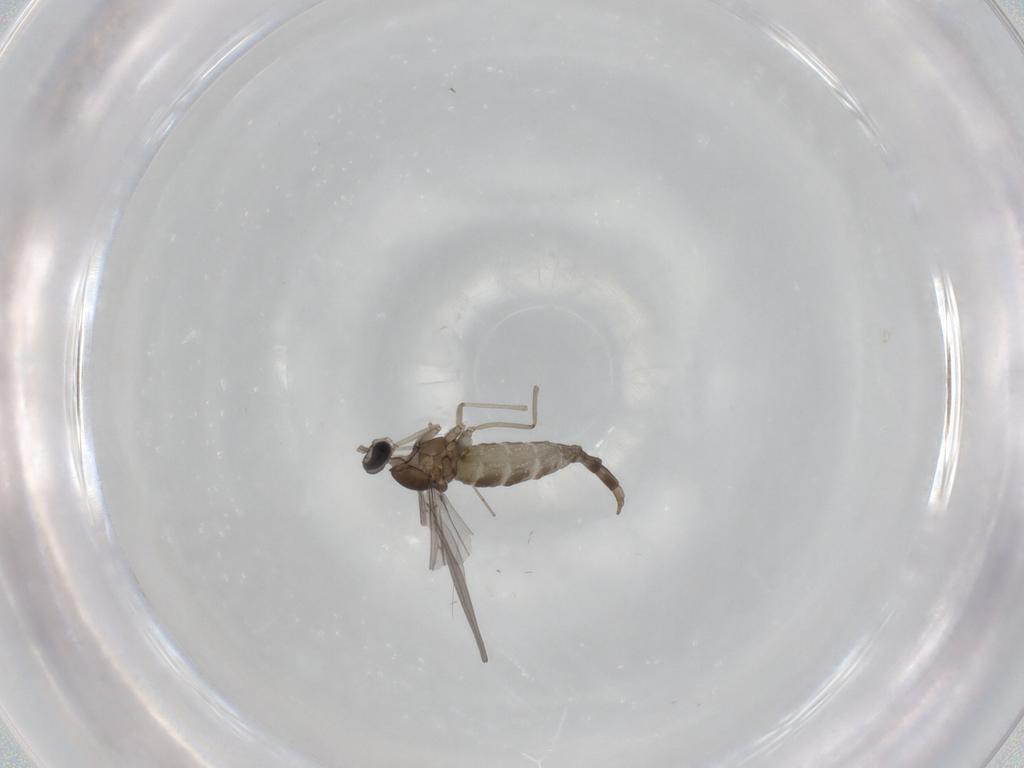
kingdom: Animalia
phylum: Arthropoda
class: Insecta
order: Diptera
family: Cecidomyiidae
